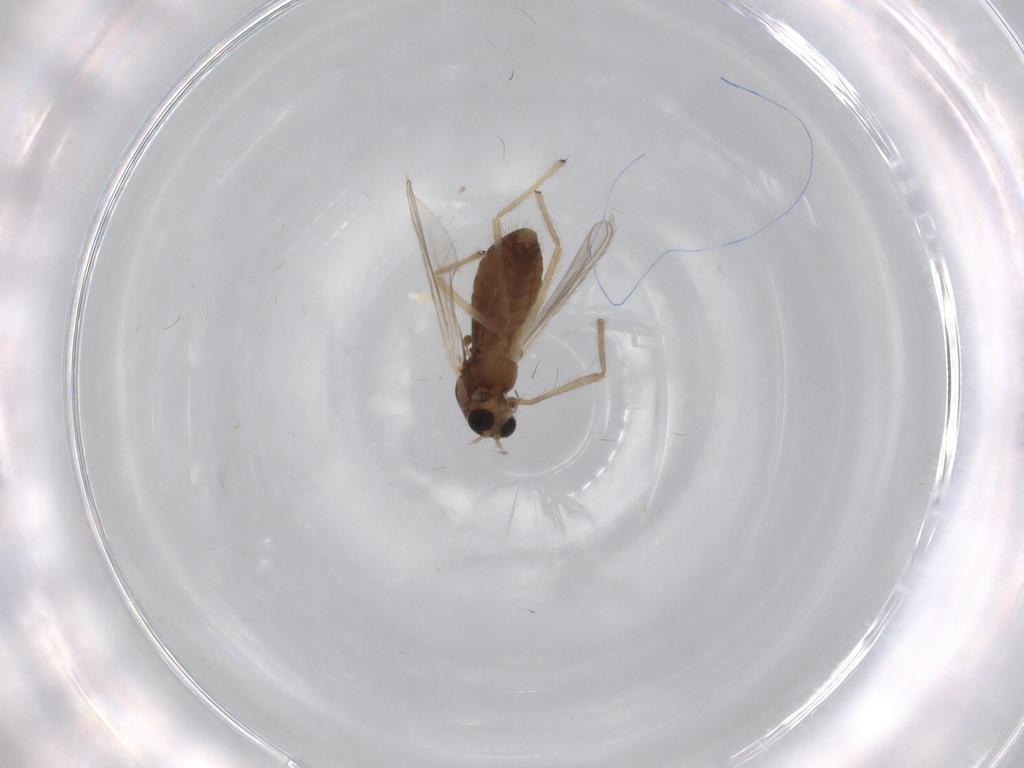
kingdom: Animalia
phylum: Arthropoda
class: Insecta
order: Diptera
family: Chironomidae
